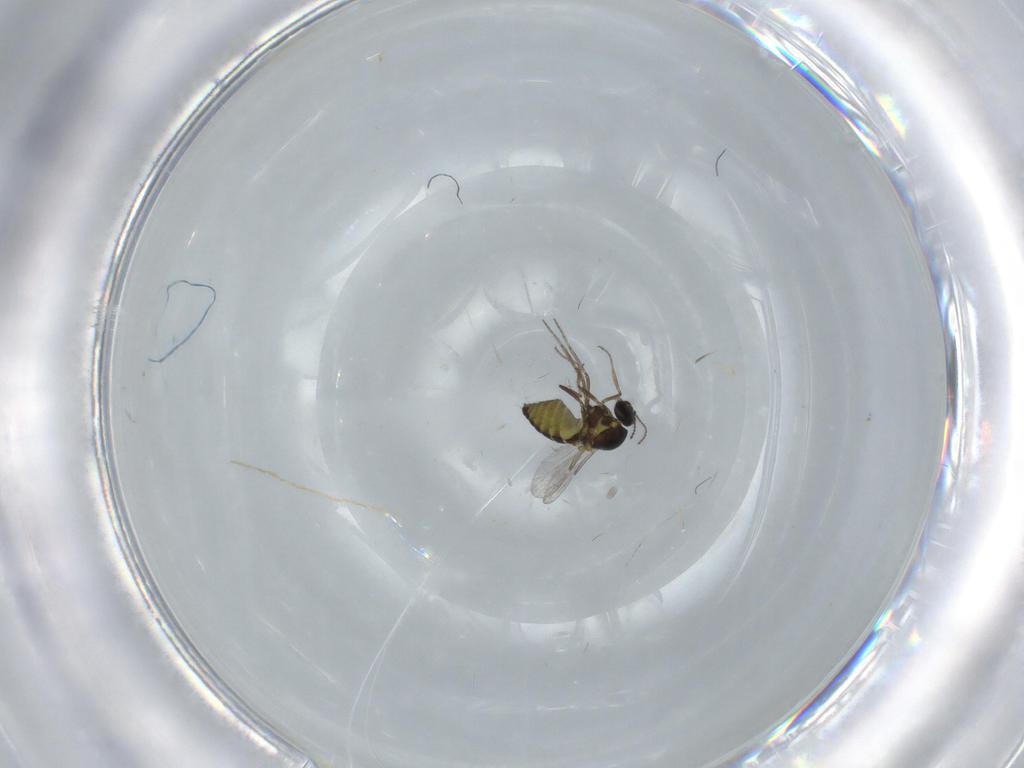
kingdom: Animalia
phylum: Arthropoda
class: Insecta
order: Diptera
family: Ceratopogonidae
